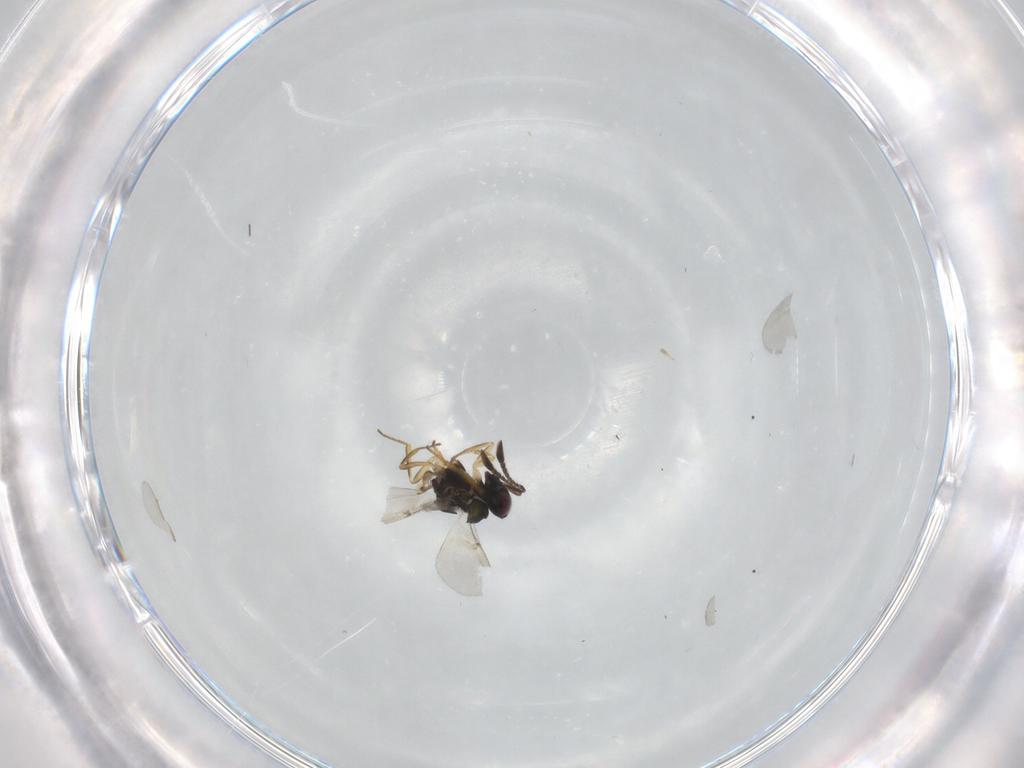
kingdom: Animalia
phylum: Arthropoda
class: Insecta
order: Hymenoptera
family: Encyrtidae
